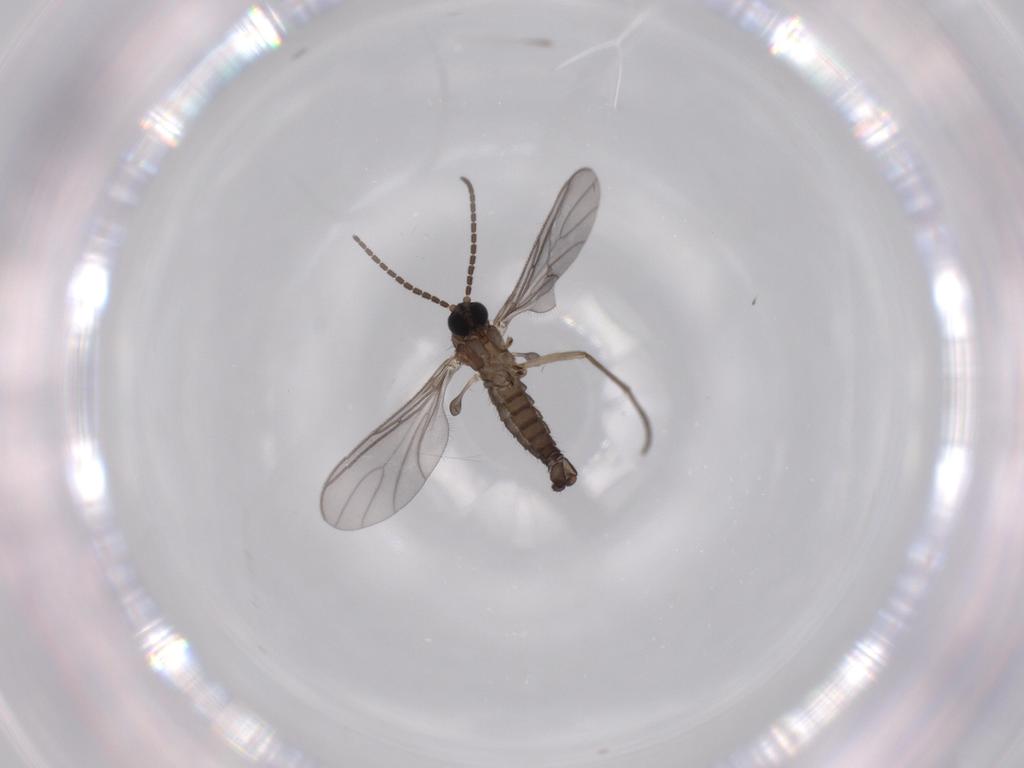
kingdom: Animalia
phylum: Arthropoda
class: Insecta
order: Diptera
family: Sciaridae
